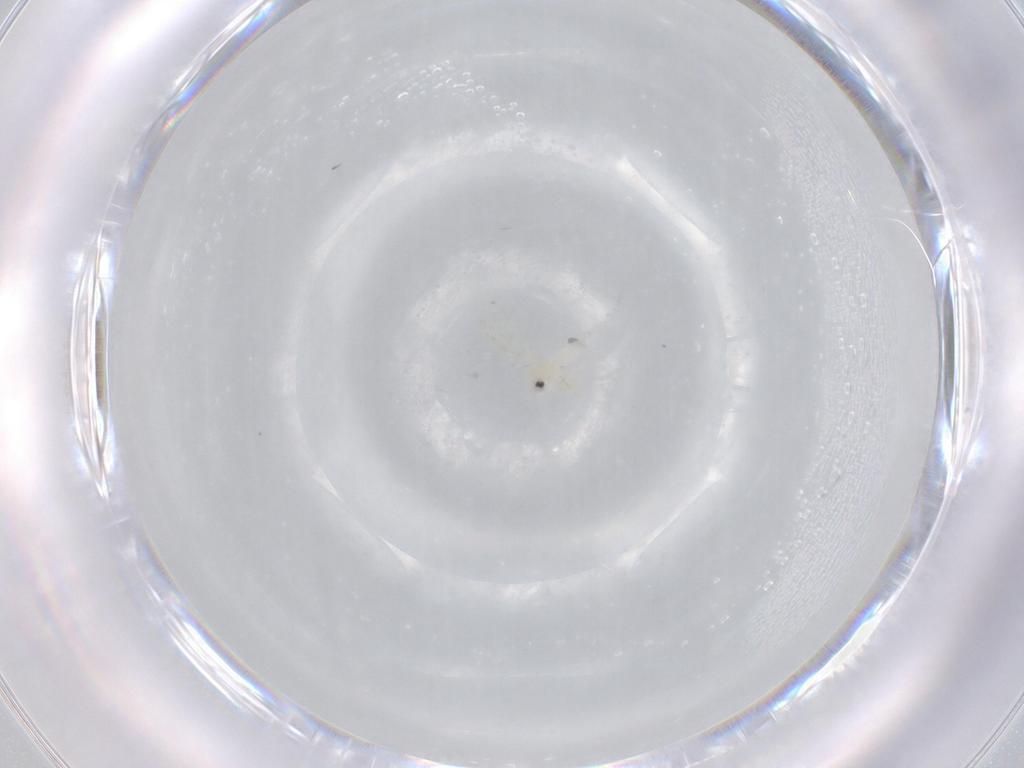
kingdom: Animalia
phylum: Arthropoda
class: Insecta
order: Hemiptera
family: Aleyrodidae
